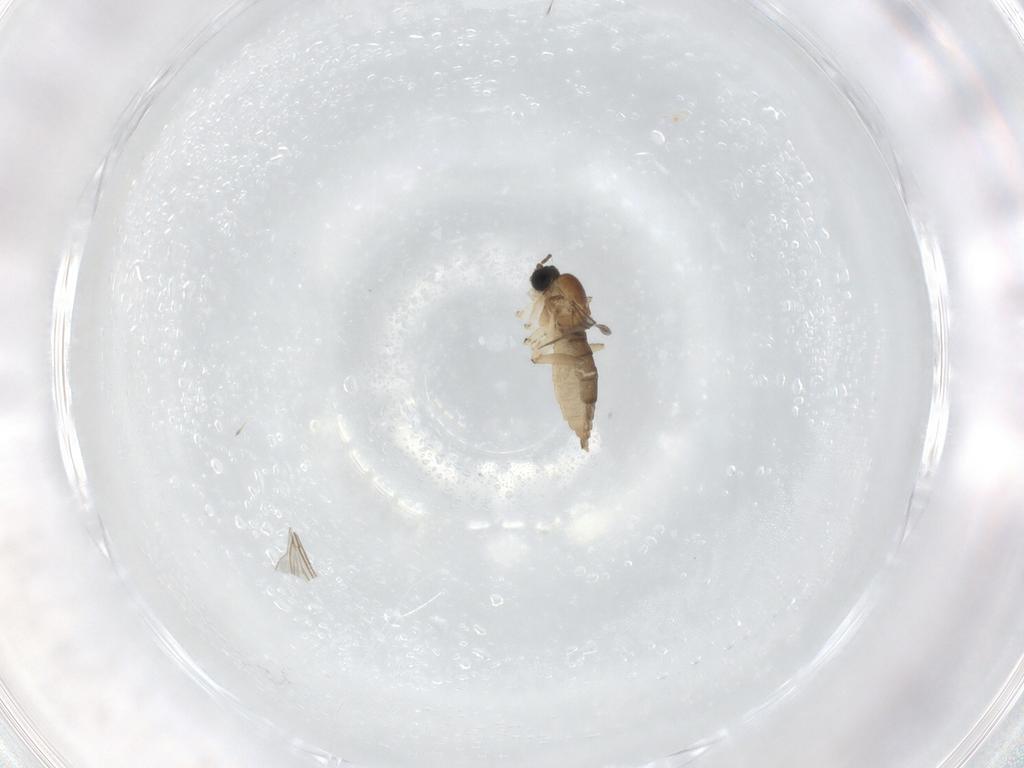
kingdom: Animalia
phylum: Arthropoda
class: Insecta
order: Diptera
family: Sciaridae
